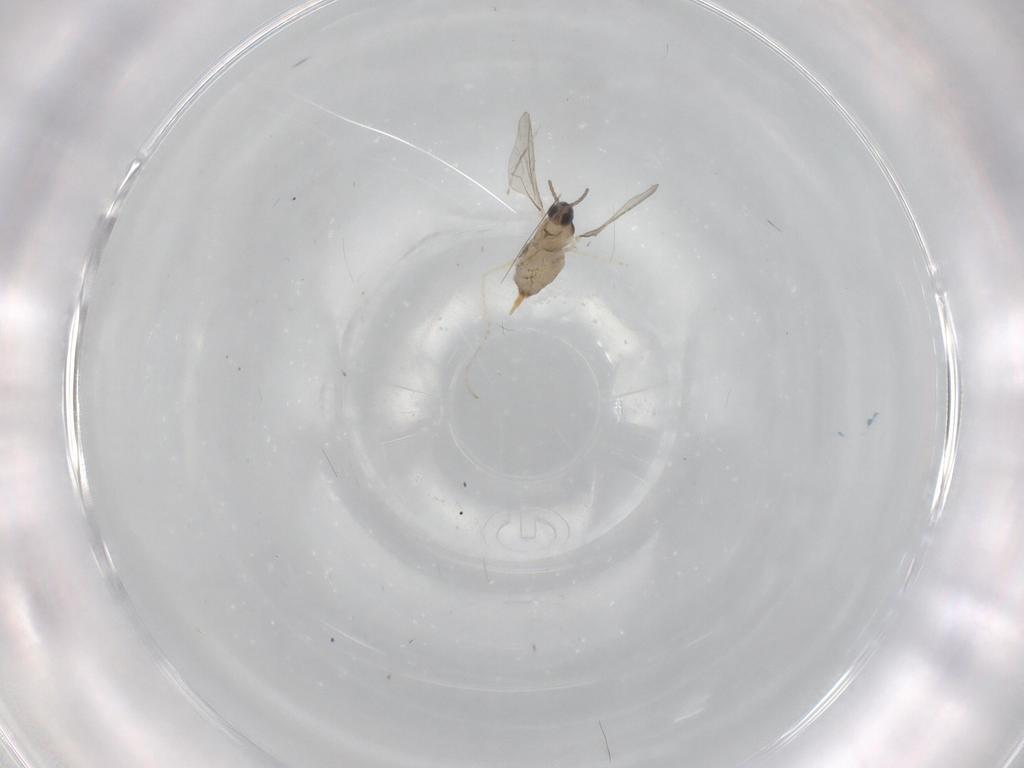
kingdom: Animalia
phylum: Arthropoda
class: Insecta
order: Diptera
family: Cecidomyiidae
